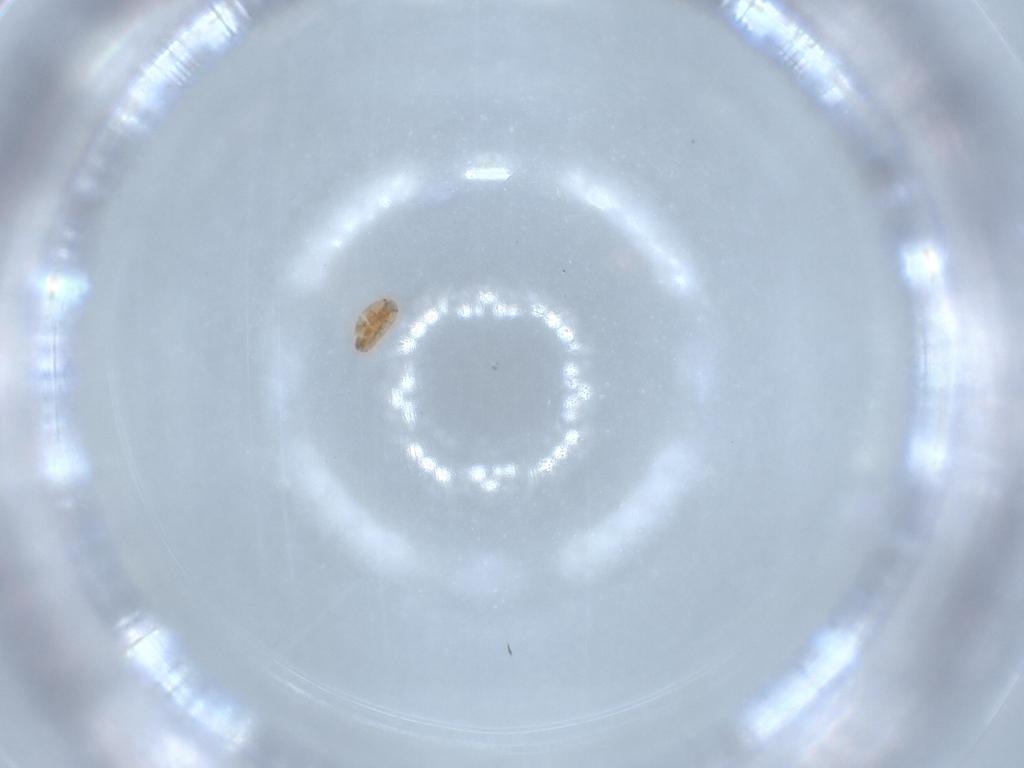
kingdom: Animalia
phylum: Arthropoda
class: Insecta
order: Diptera
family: Chironomidae
